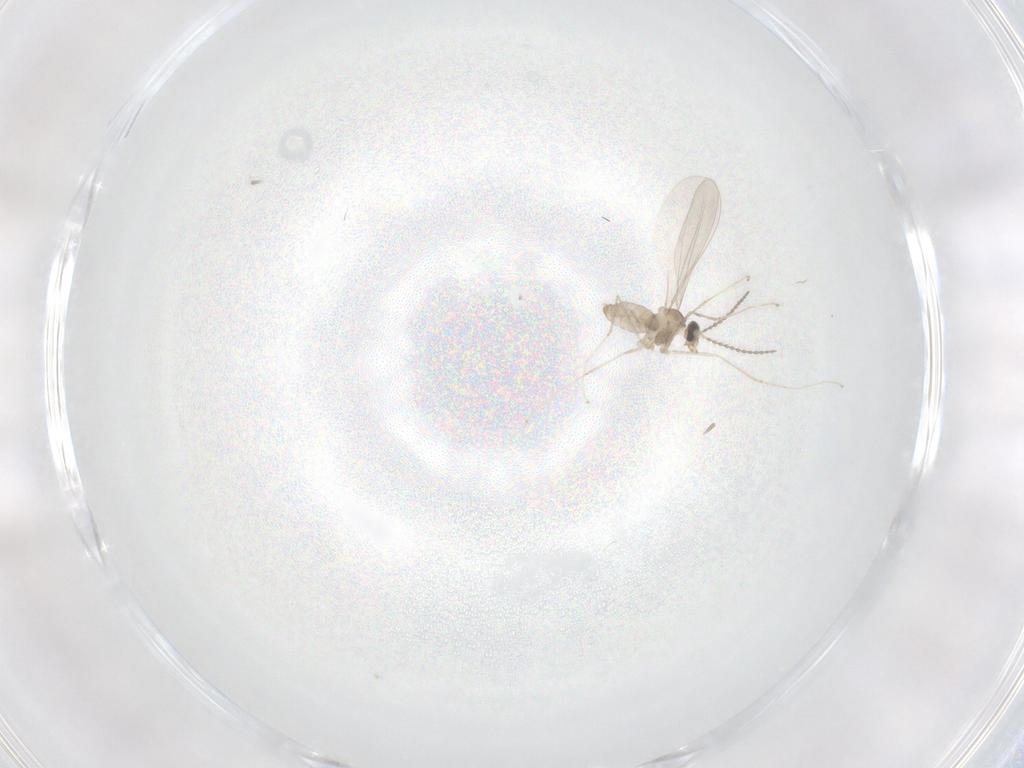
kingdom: Animalia
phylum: Arthropoda
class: Insecta
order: Diptera
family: Cecidomyiidae
